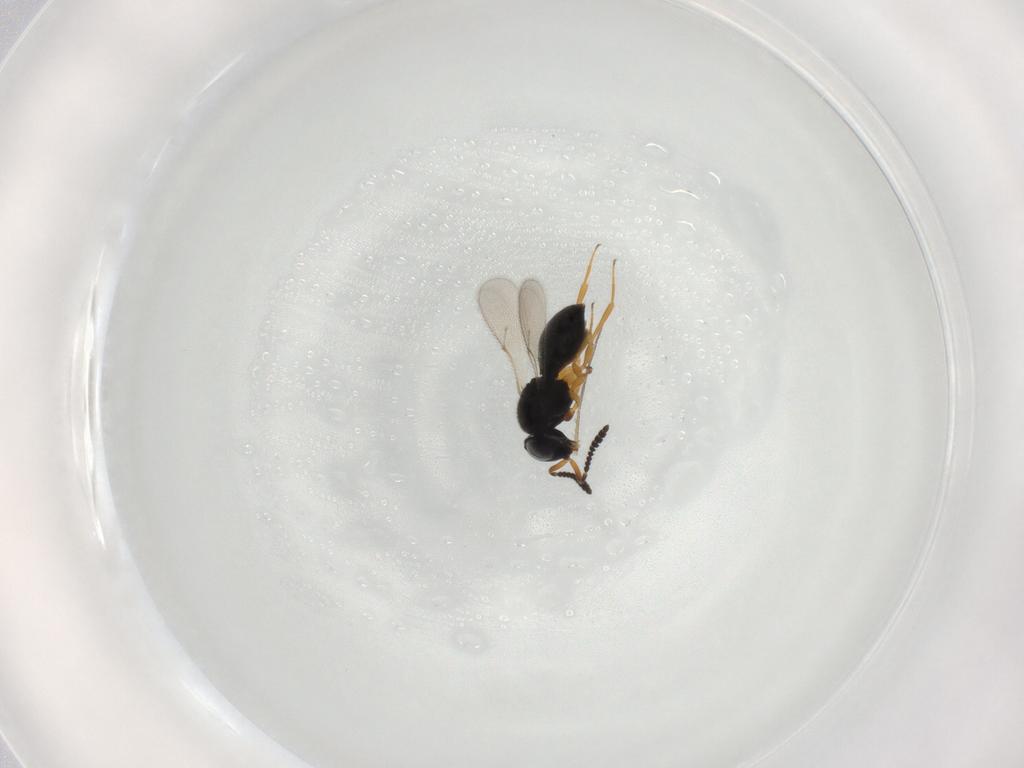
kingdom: Animalia
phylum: Arthropoda
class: Insecta
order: Hymenoptera
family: Scelionidae
